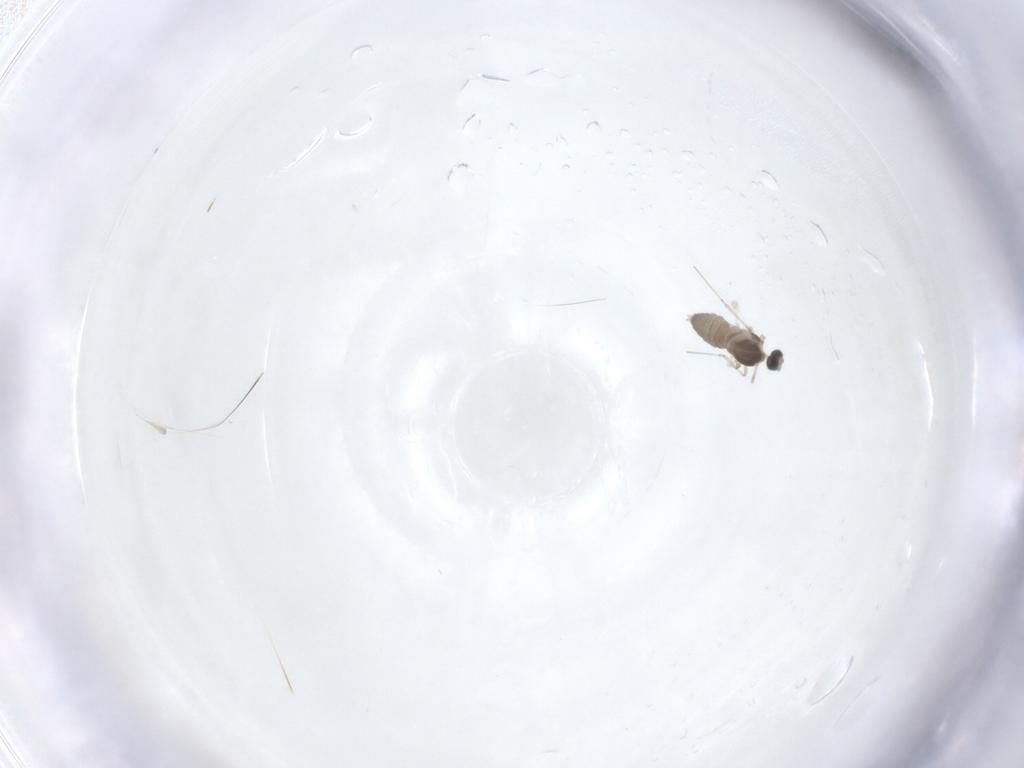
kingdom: Animalia
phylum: Arthropoda
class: Insecta
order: Diptera
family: Cecidomyiidae
